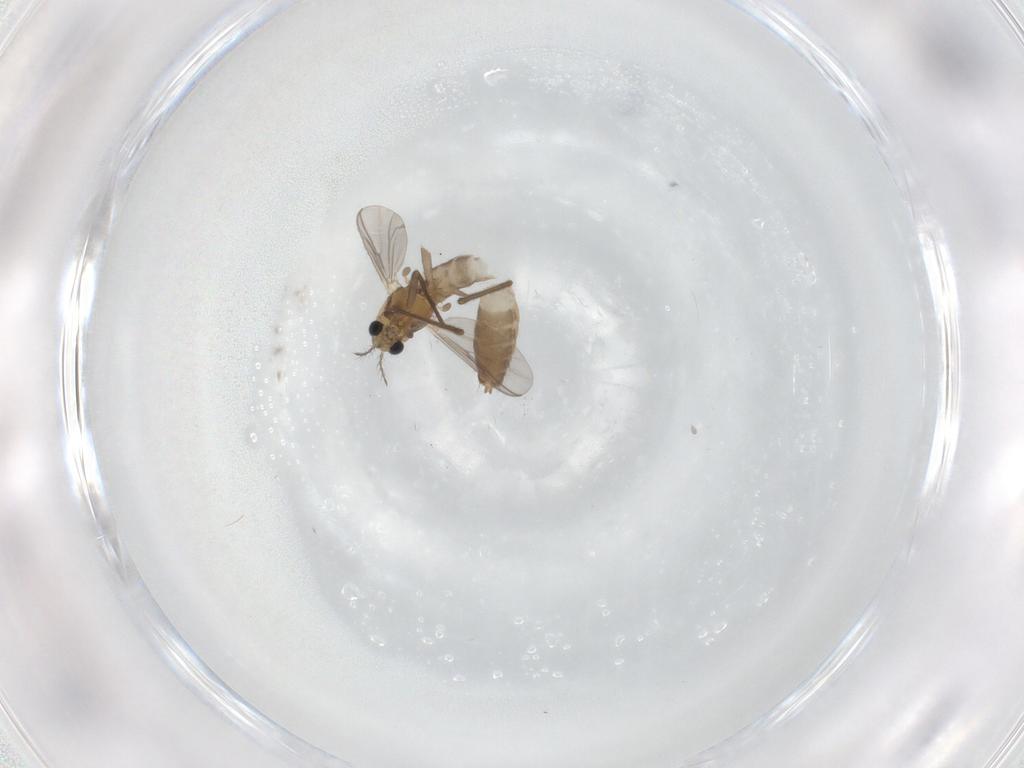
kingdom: Animalia
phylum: Arthropoda
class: Insecta
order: Diptera
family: Chironomidae
